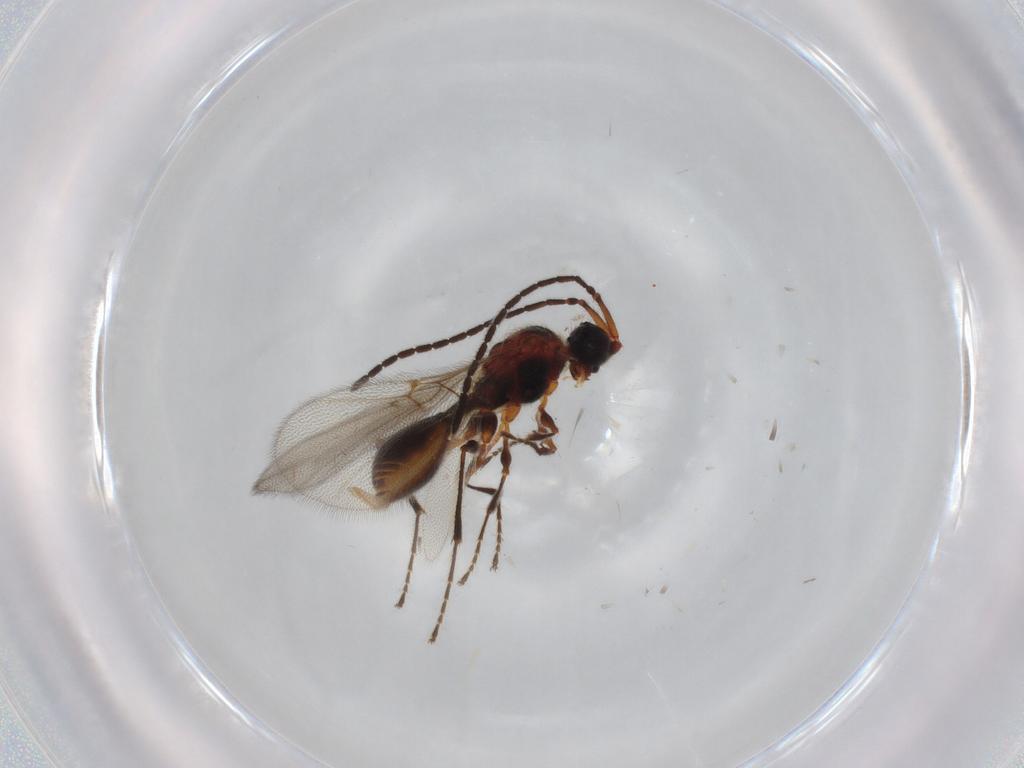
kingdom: Animalia
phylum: Arthropoda
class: Insecta
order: Hymenoptera
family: Diapriidae
